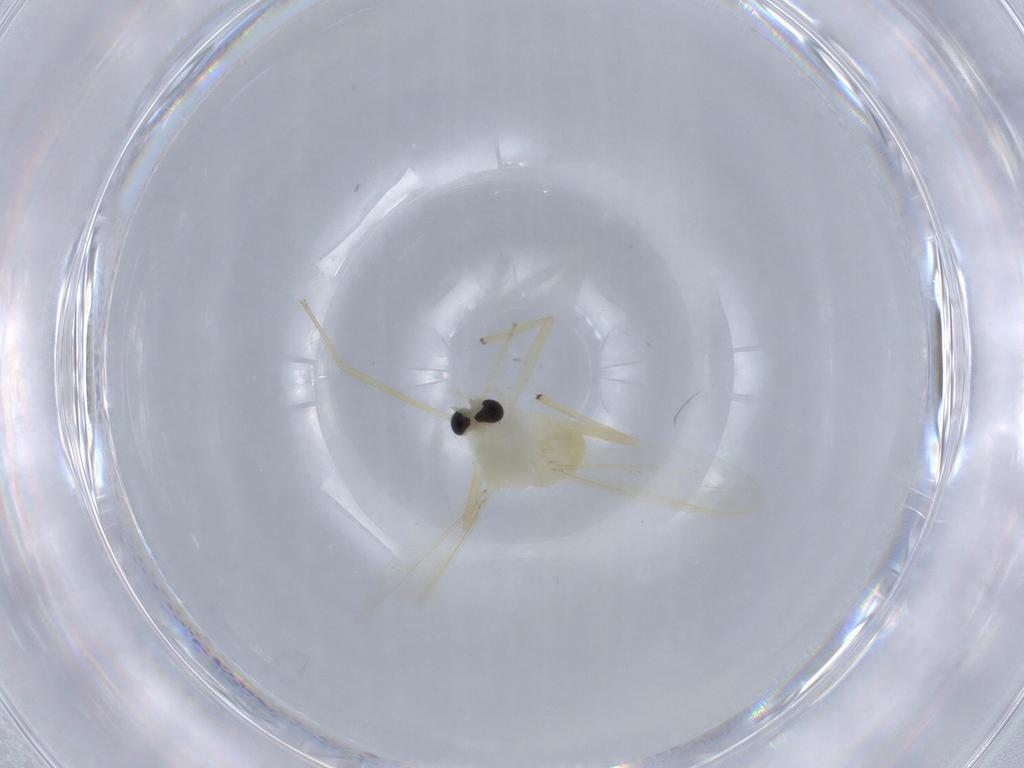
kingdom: Animalia
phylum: Arthropoda
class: Insecta
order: Diptera
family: Chironomidae
